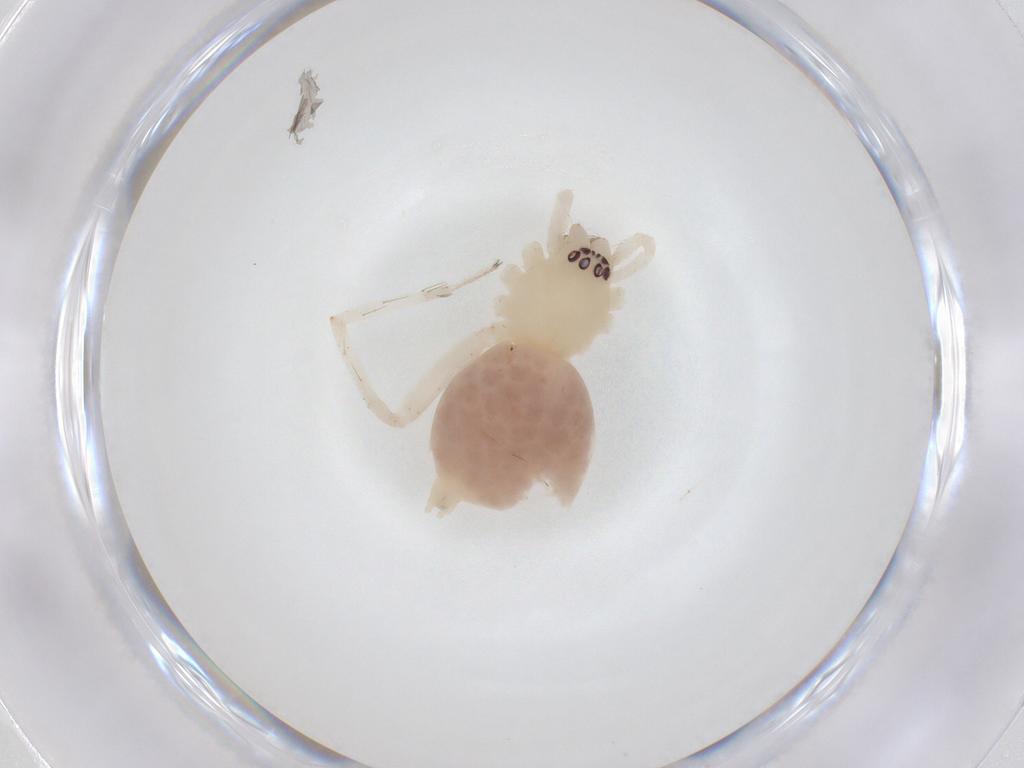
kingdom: Animalia
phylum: Arthropoda
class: Arachnida
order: Araneae
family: Anyphaenidae
